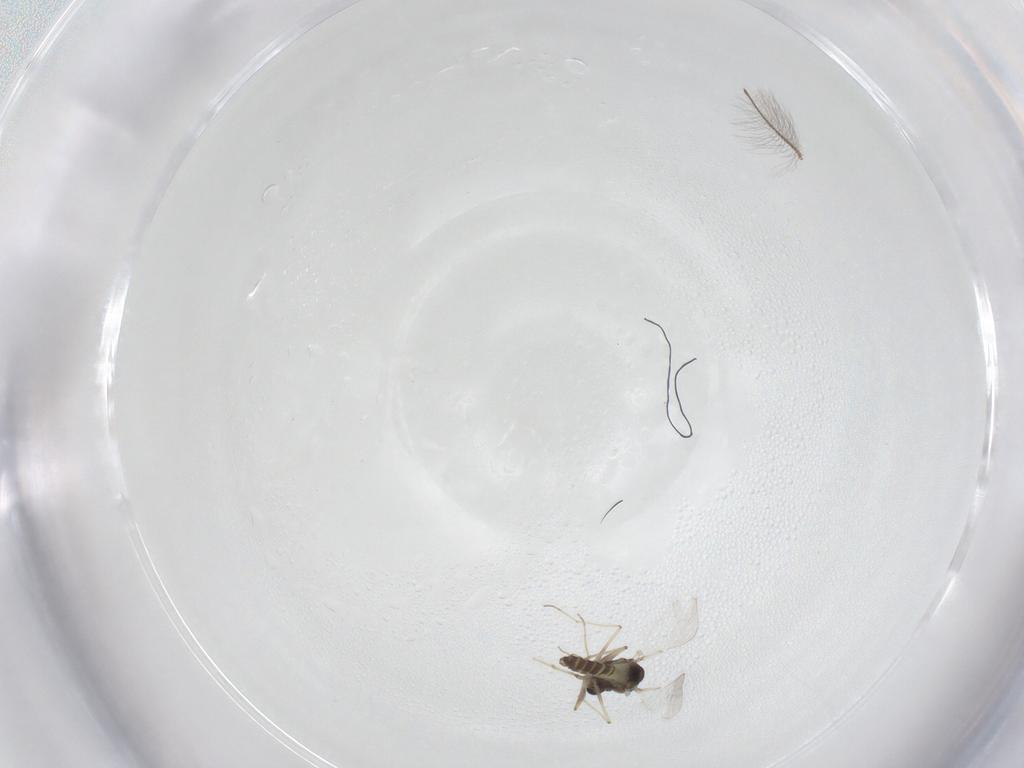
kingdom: Animalia
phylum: Arthropoda
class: Insecta
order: Diptera
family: Chironomidae
